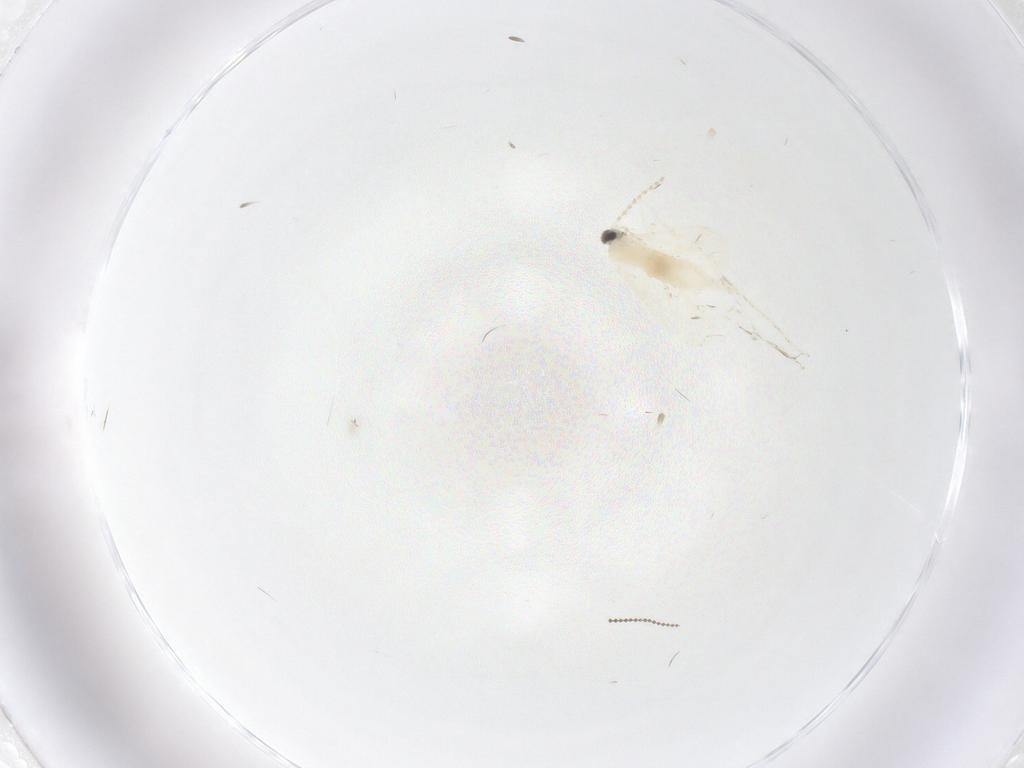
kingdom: Animalia
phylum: Arthropoda
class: Insecta
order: Diptera
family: Cecidomyiidae
